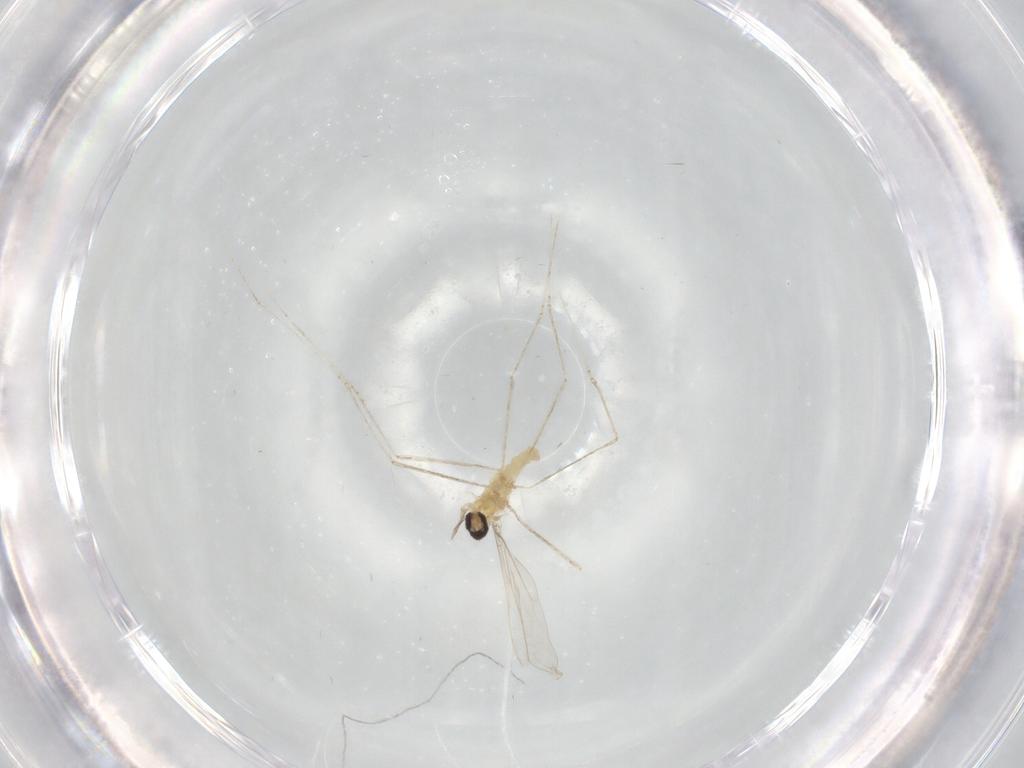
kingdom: Animalia
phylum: Arthropoda
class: Insecta
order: Diptera
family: Cecidomyiidae
